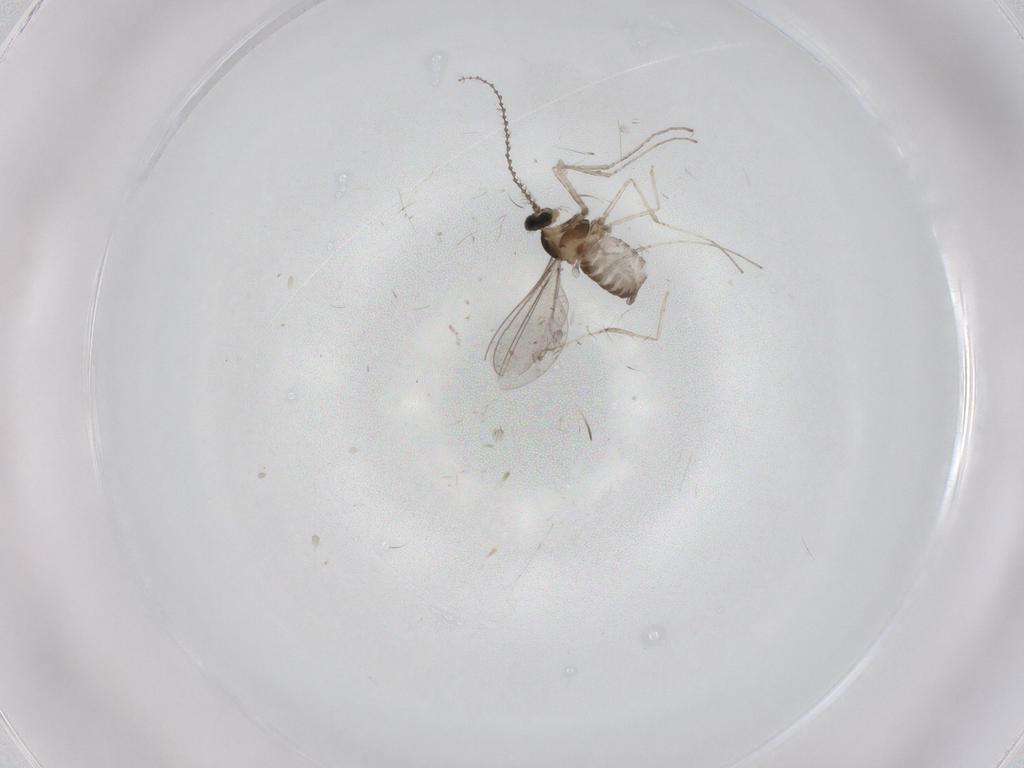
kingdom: Animalia
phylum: Arthropoda
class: Insecta
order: Diptera
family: Cecidomyiidae
